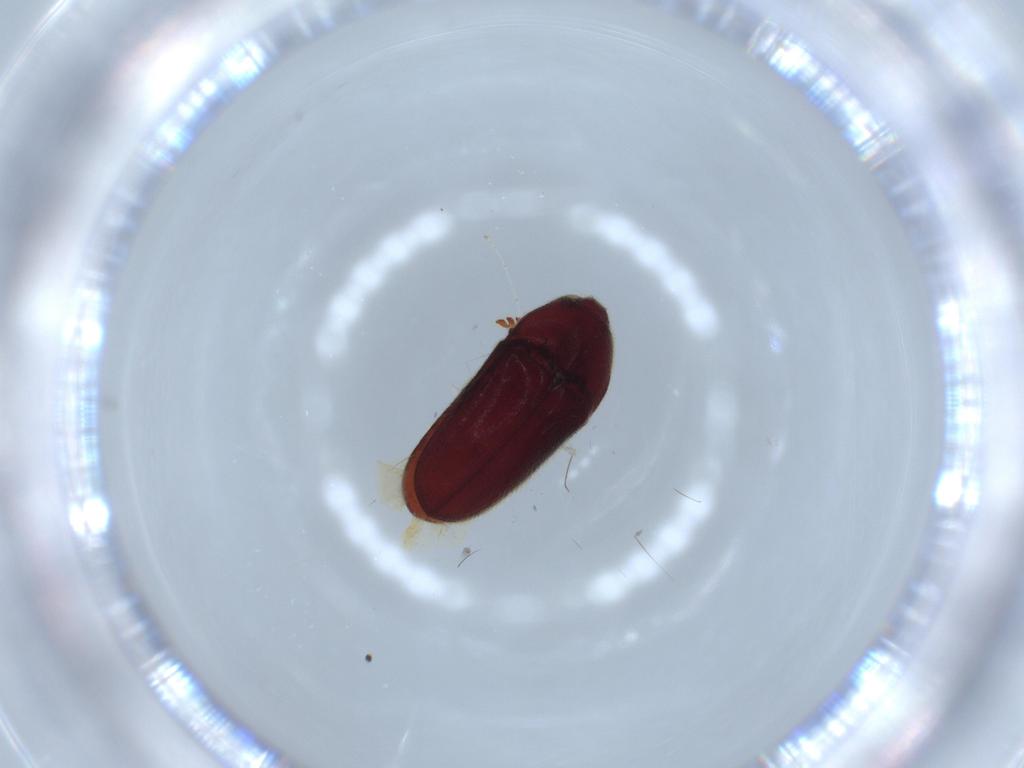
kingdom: Animalia
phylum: Arthropoda
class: Insecta
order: Coleoptera
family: Throscidae
